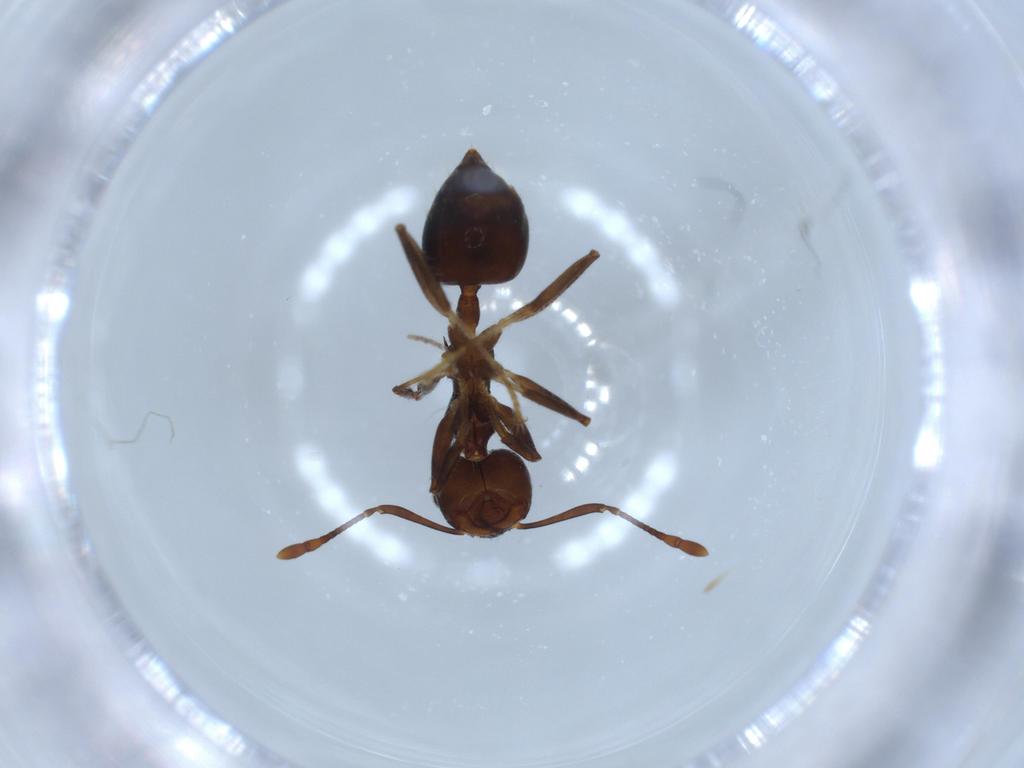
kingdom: Animalia
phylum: Arthropoda
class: Insecta
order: Hymenoptera
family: Formicidae
